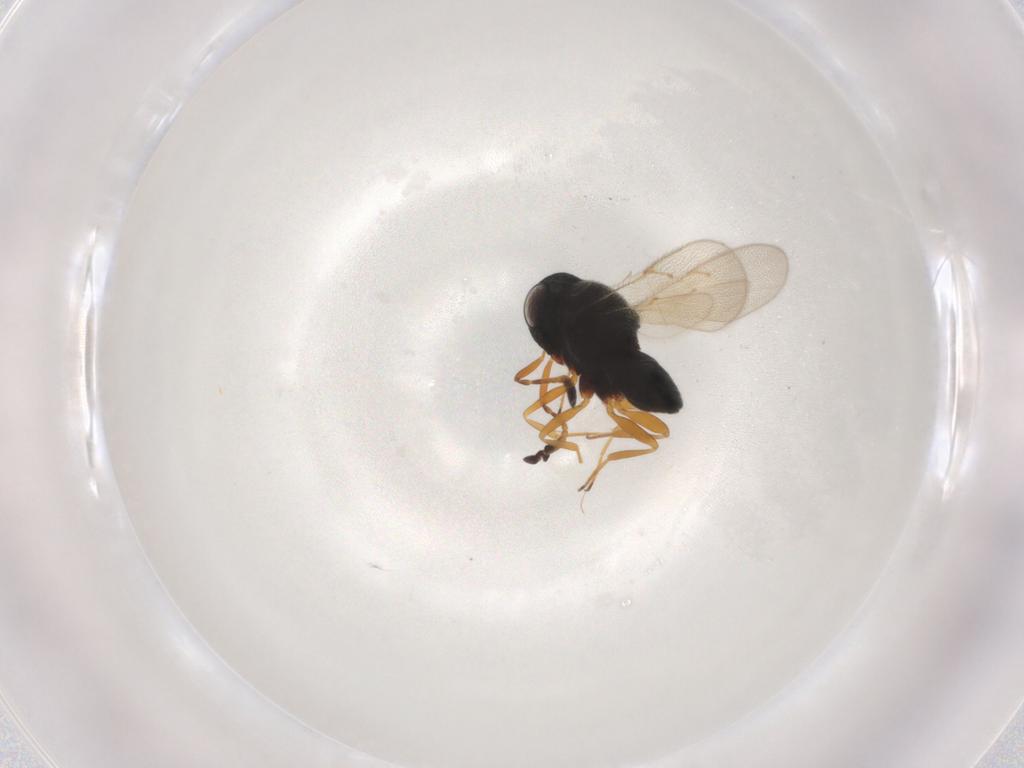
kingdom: Animalia
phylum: Arthropoda
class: Insecta
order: Hymenoptera
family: Scelionidae
